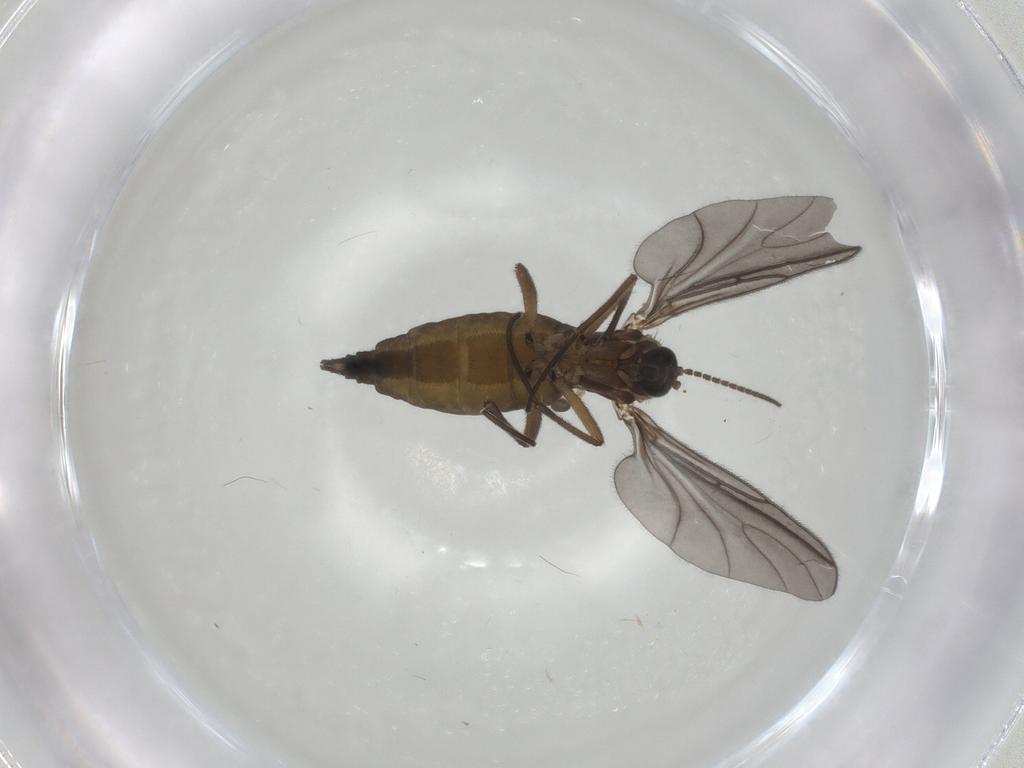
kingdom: Animalia
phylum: Arthropoda
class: Insecta
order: Diptera
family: Sciaridae
